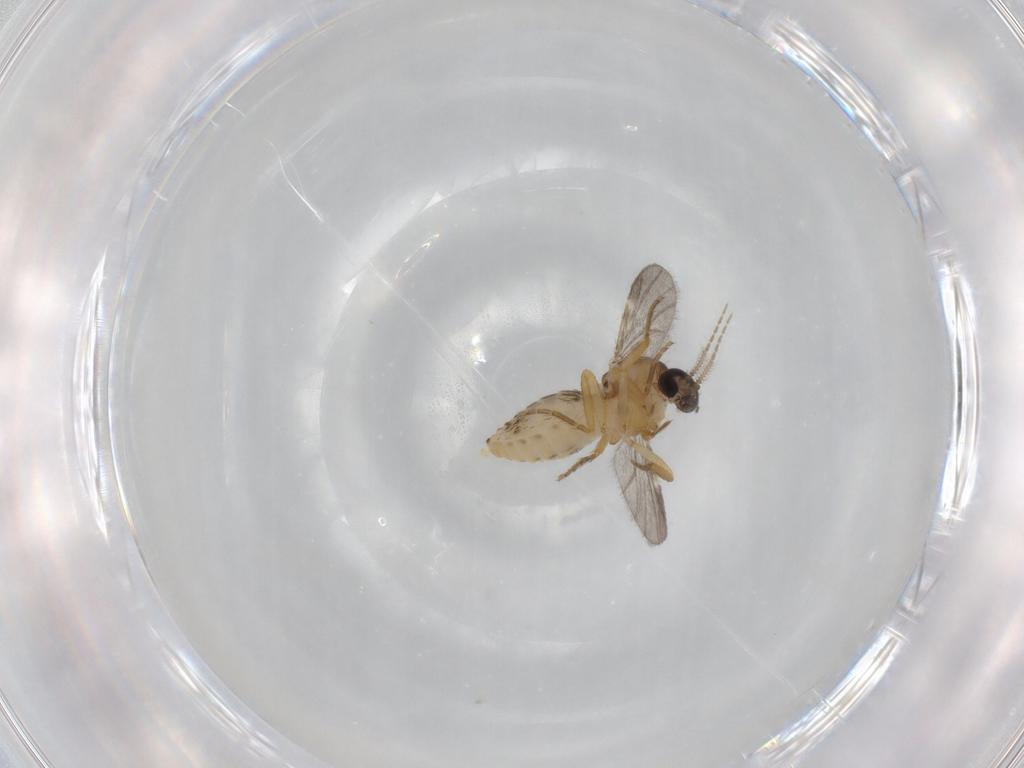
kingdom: Animalia
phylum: Arthropoda
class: Insecta
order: Diptera
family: Ceratopogonidae
